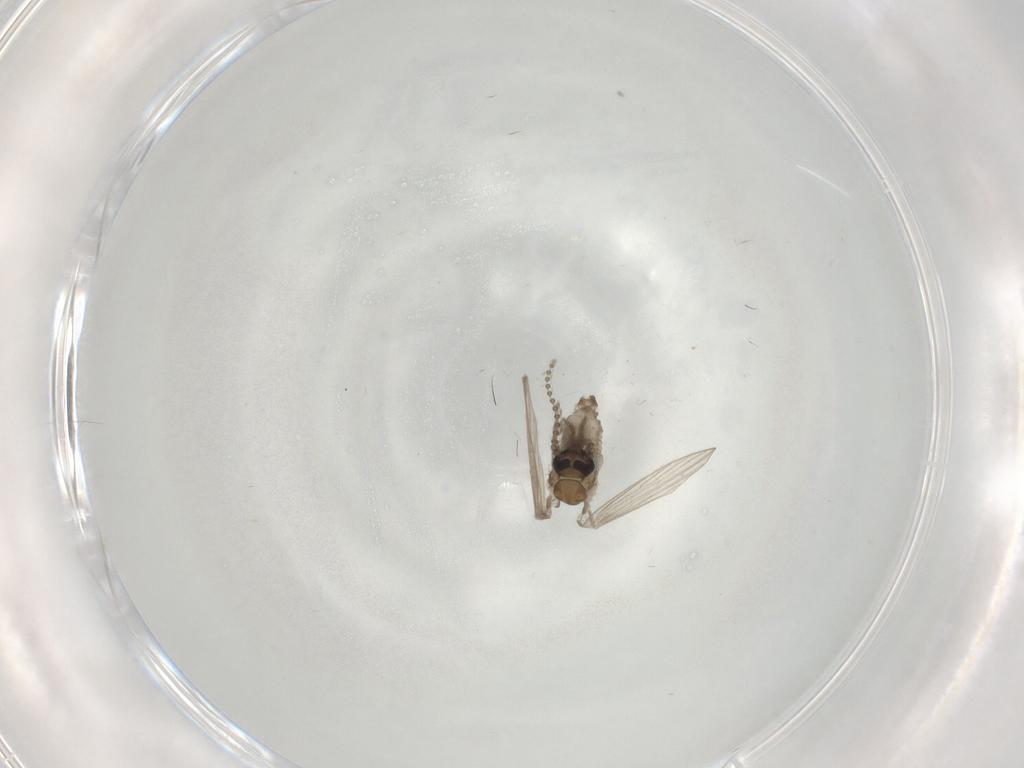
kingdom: Animalia
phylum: Arthropoda
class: Insecta
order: Diptera
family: Psychodidae
